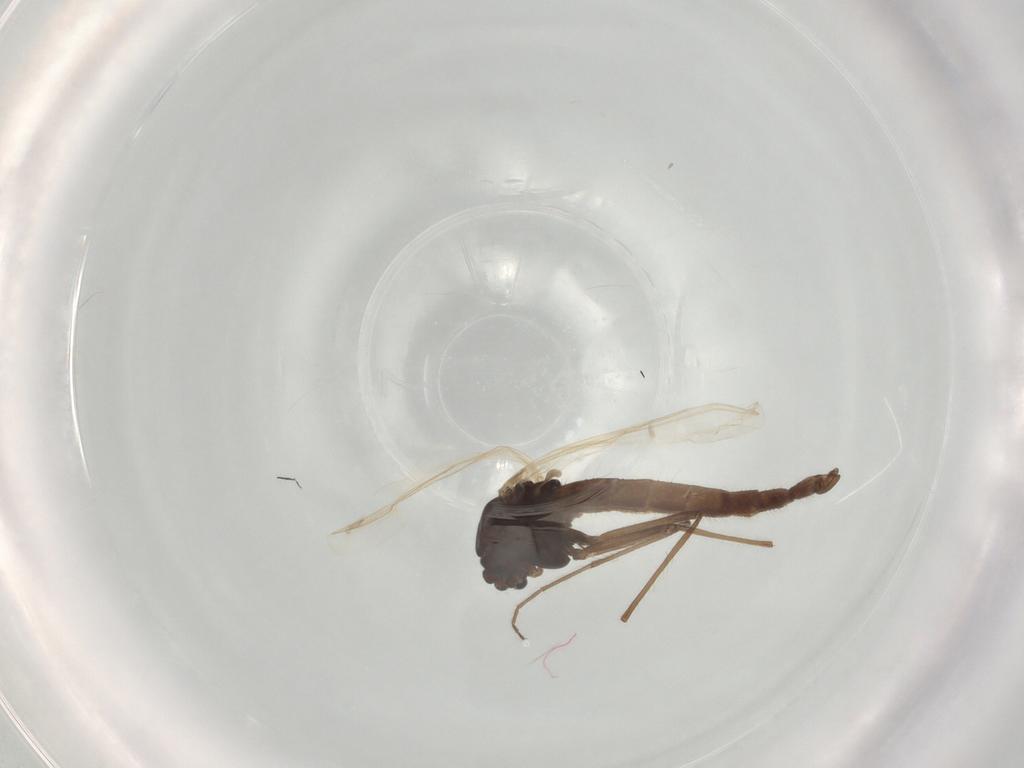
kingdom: Animalia
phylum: Arthropoda
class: Insecta
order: Diptera
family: Chironomidae
